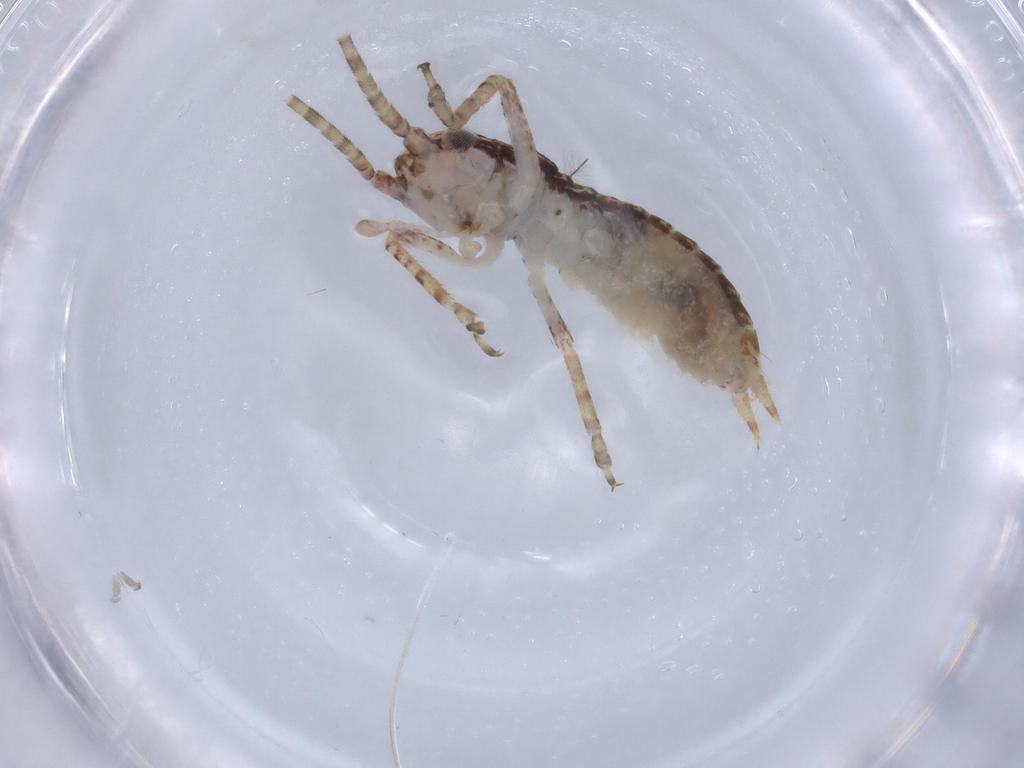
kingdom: Animalia
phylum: Arthropoda
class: Insecta
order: Orthoptera
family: Gryllidae
